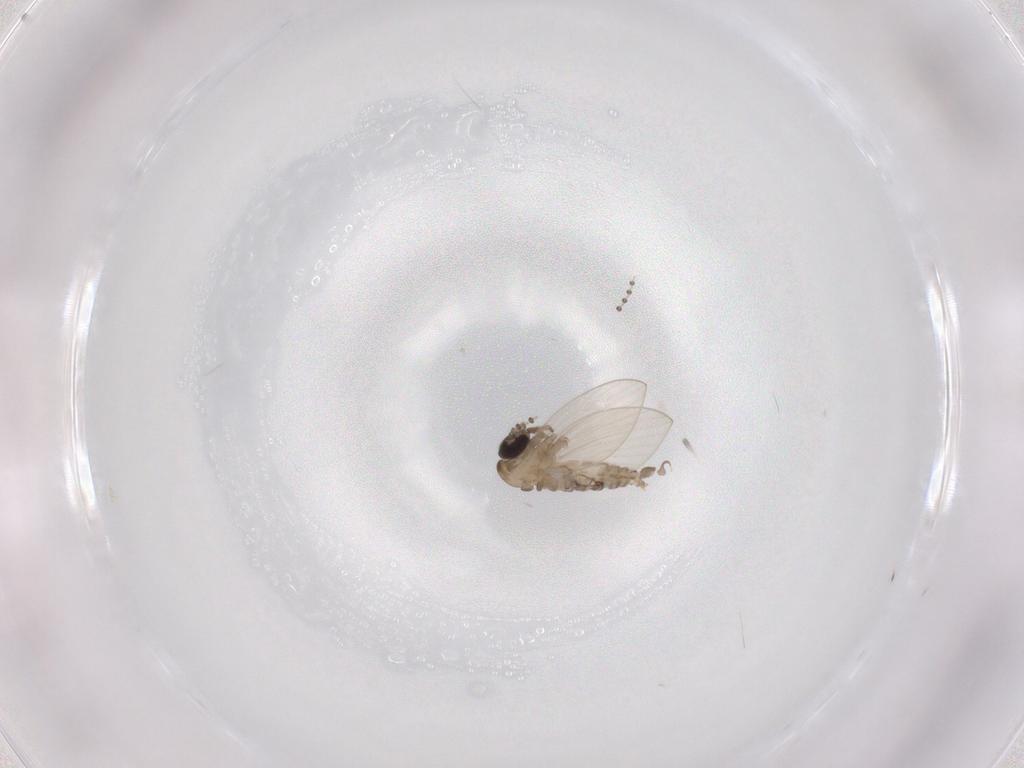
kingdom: Animalia
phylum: Arthropoda
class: Insecta
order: Diptera
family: Psychodidae
